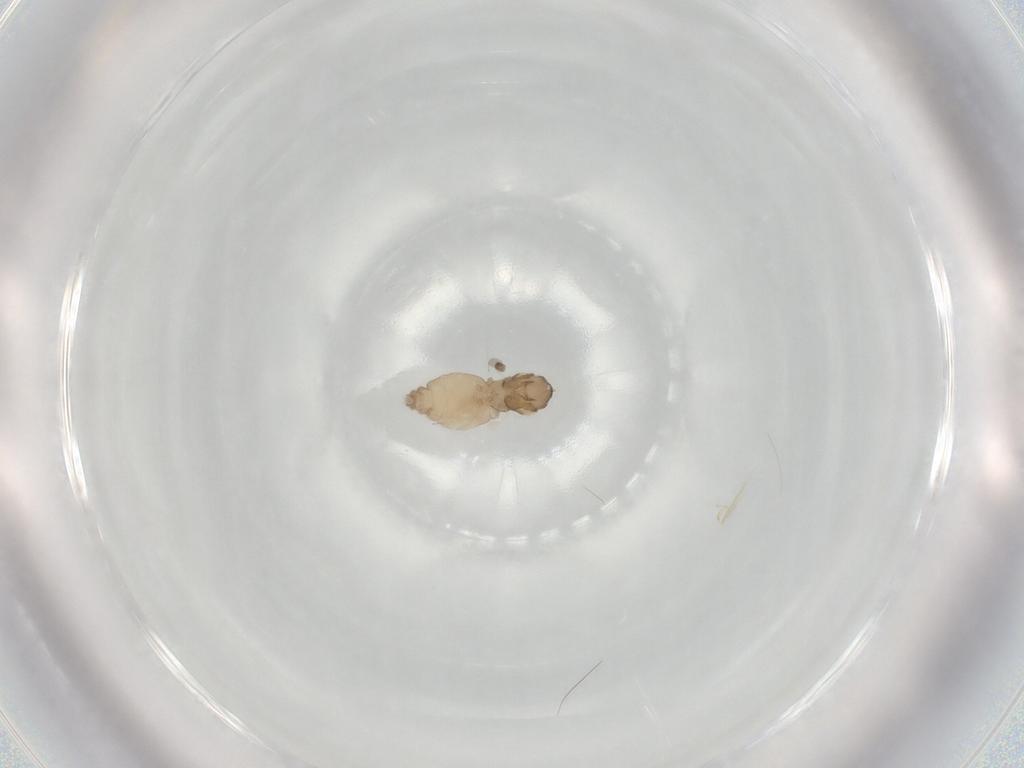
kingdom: Animalia
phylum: Arthropoda
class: Insecta
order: Diptera
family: Cecidomyiidae
